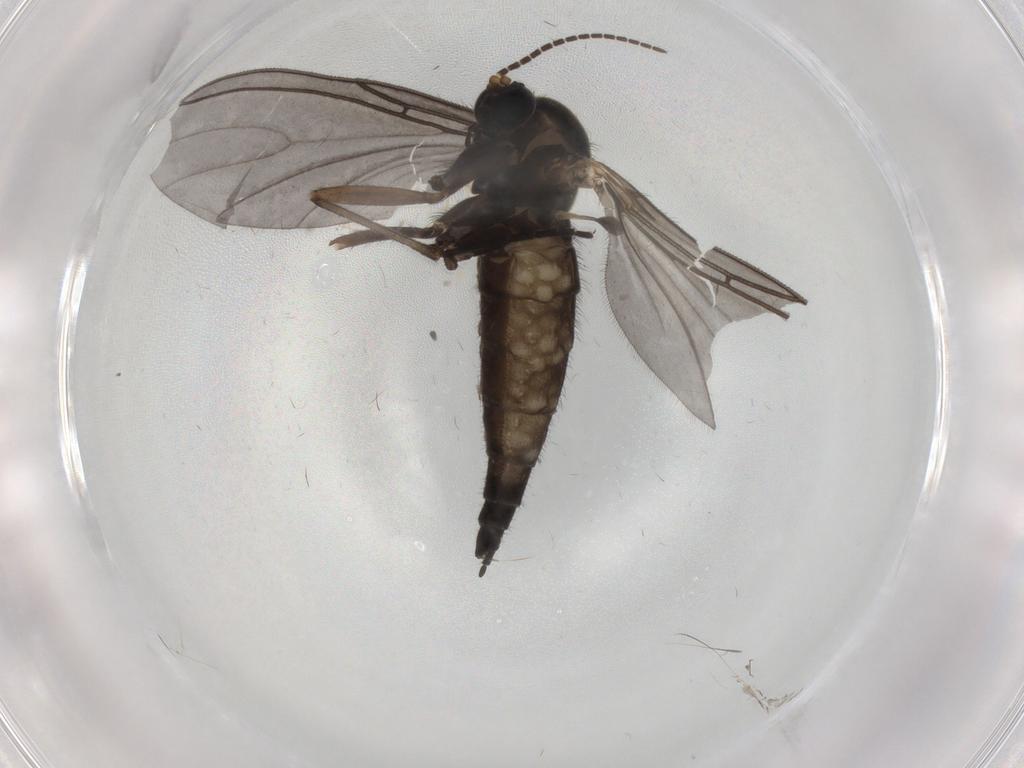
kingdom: Animalia
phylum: Arthropoda
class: Insecta
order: Diptera
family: Sciaridae
